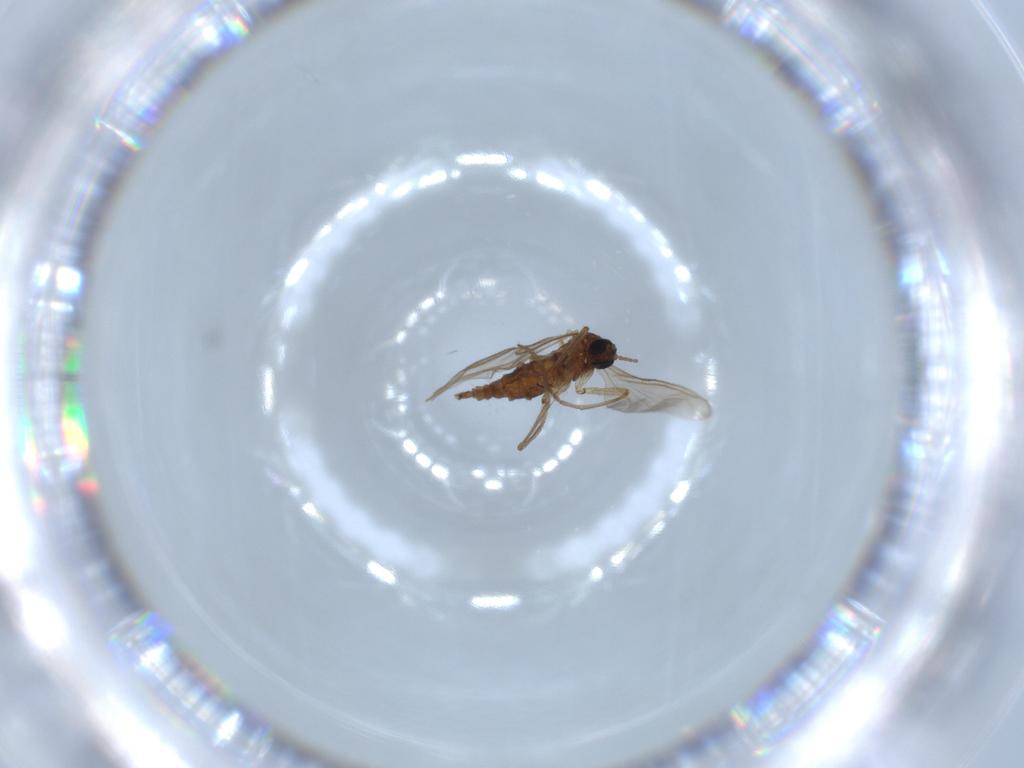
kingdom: Animalia
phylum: Arthropoda
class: Insecta
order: Diptera
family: Sciaridae
